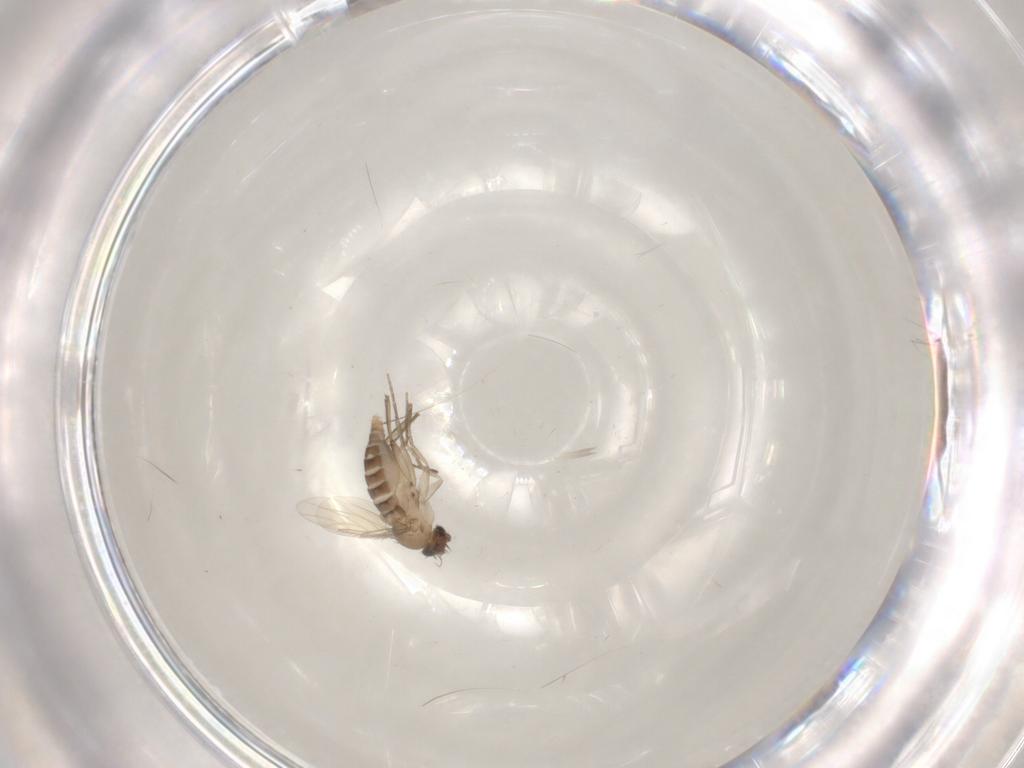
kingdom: Animalia
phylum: Arthropoda
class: Insecta
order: Diptera
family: Phoridae
